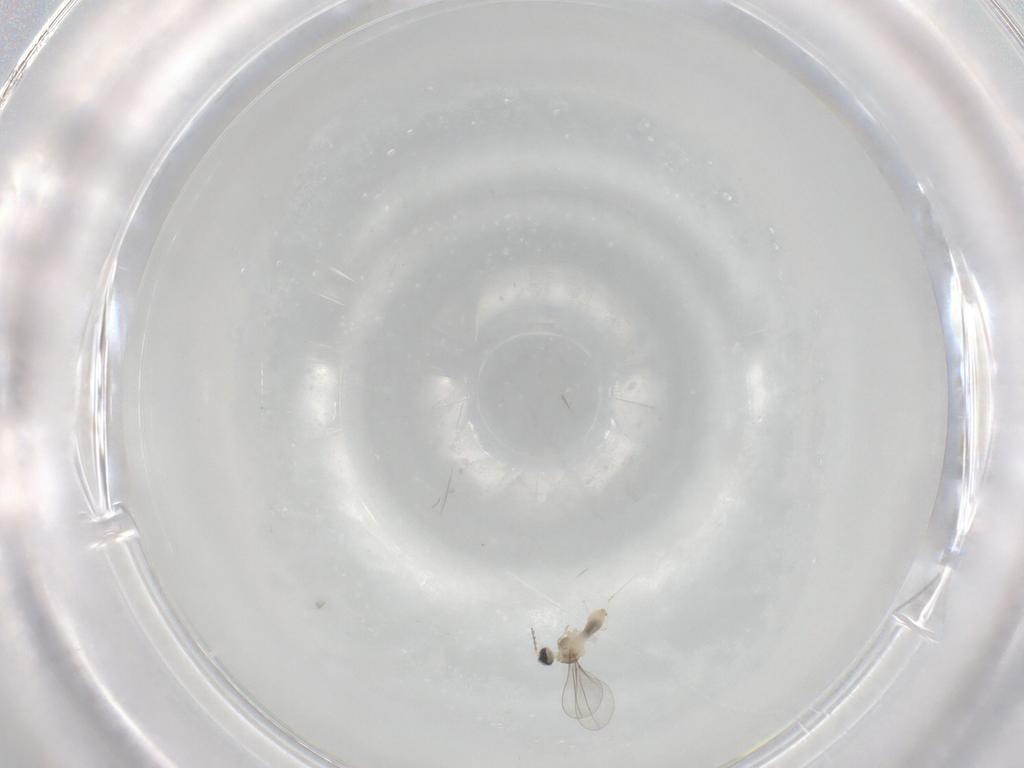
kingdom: Animalia
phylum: Arthropoda
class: Insecta
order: Diptera
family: Cecidomyiidae
